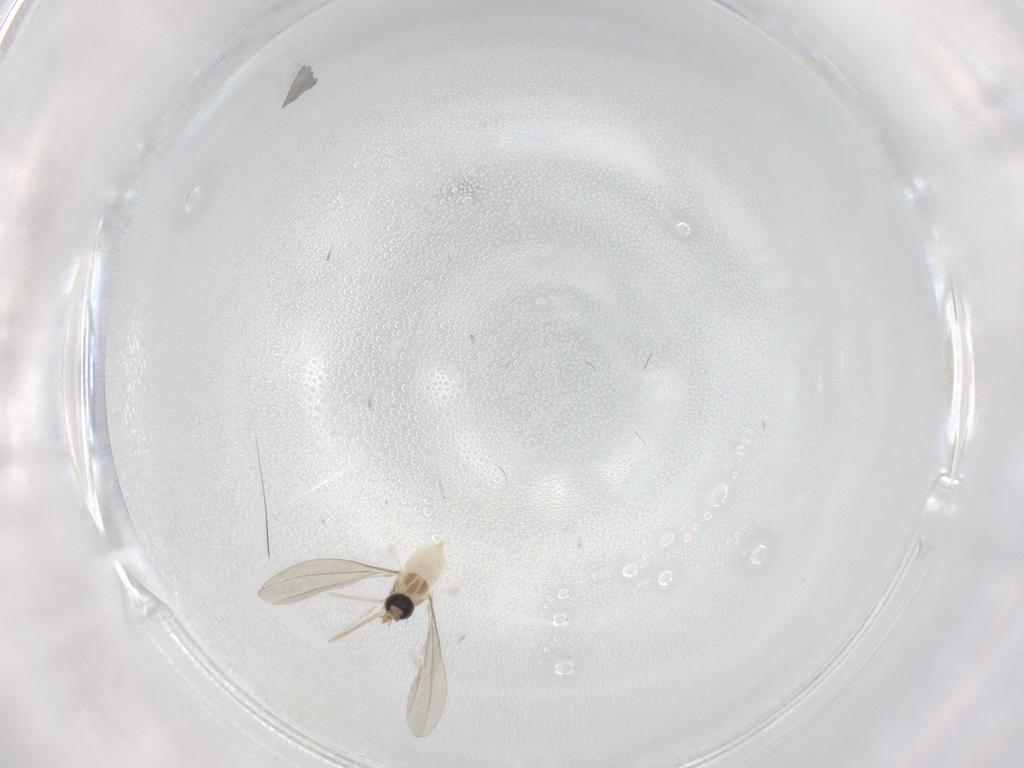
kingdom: Animalia
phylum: Arthropoda
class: Insecta
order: Diptera
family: Cecidomyiidae
